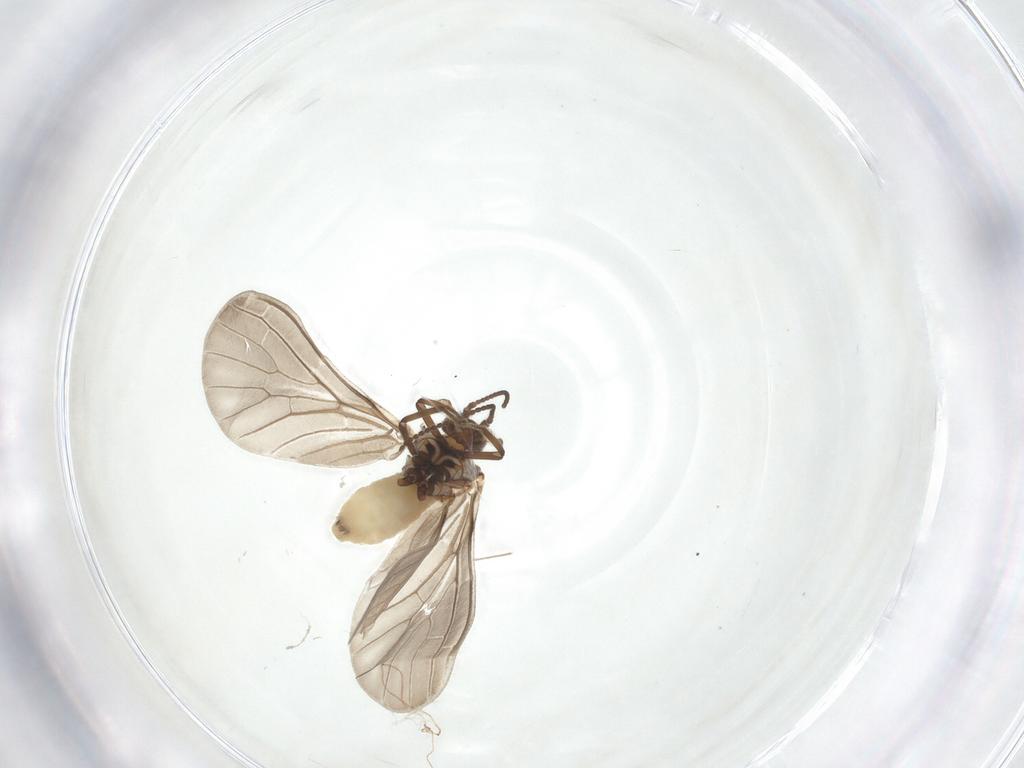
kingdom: Animalia
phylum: Arthropoda
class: Insecta
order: Neuroptera
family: Coniopterygidae
